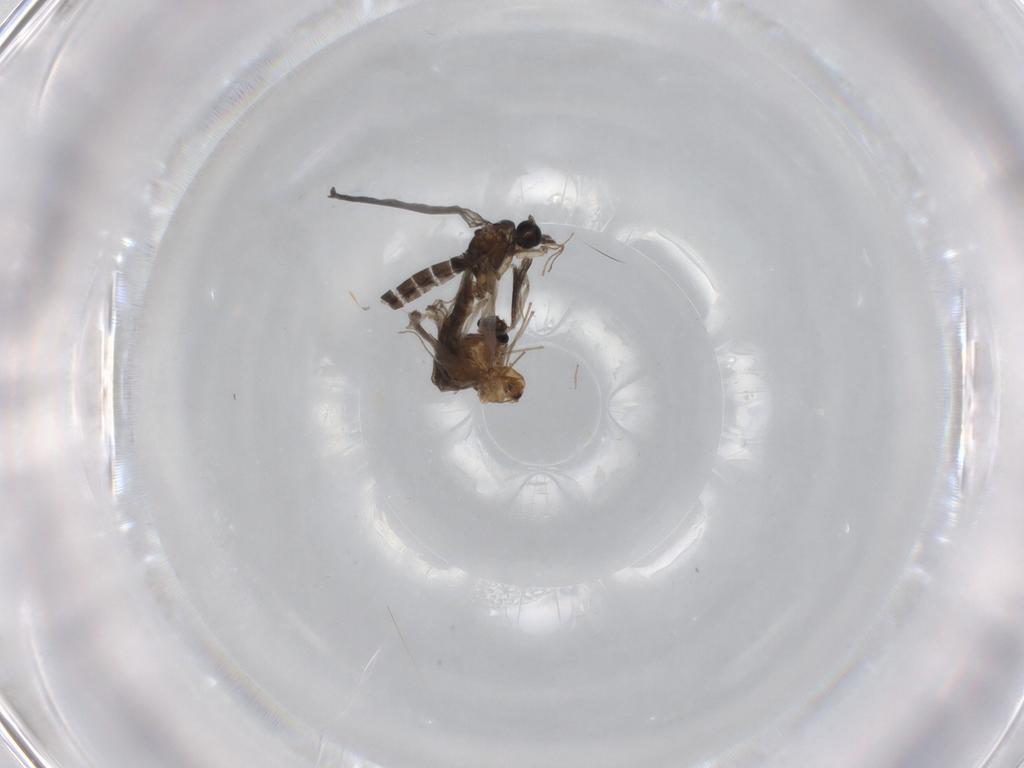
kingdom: Animalia
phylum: Arthropoda
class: Insecta
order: Diptera
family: Sciaridae
